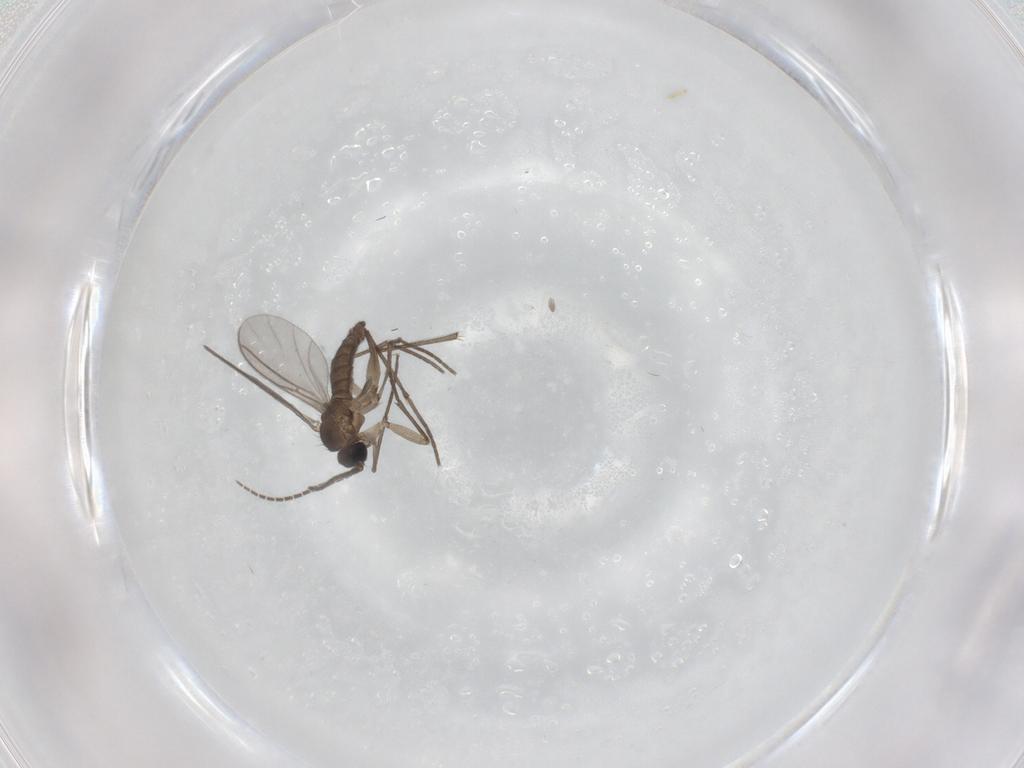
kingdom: Animalia
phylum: Arthropoda
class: Insecta
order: Diptera
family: Sciaridae
